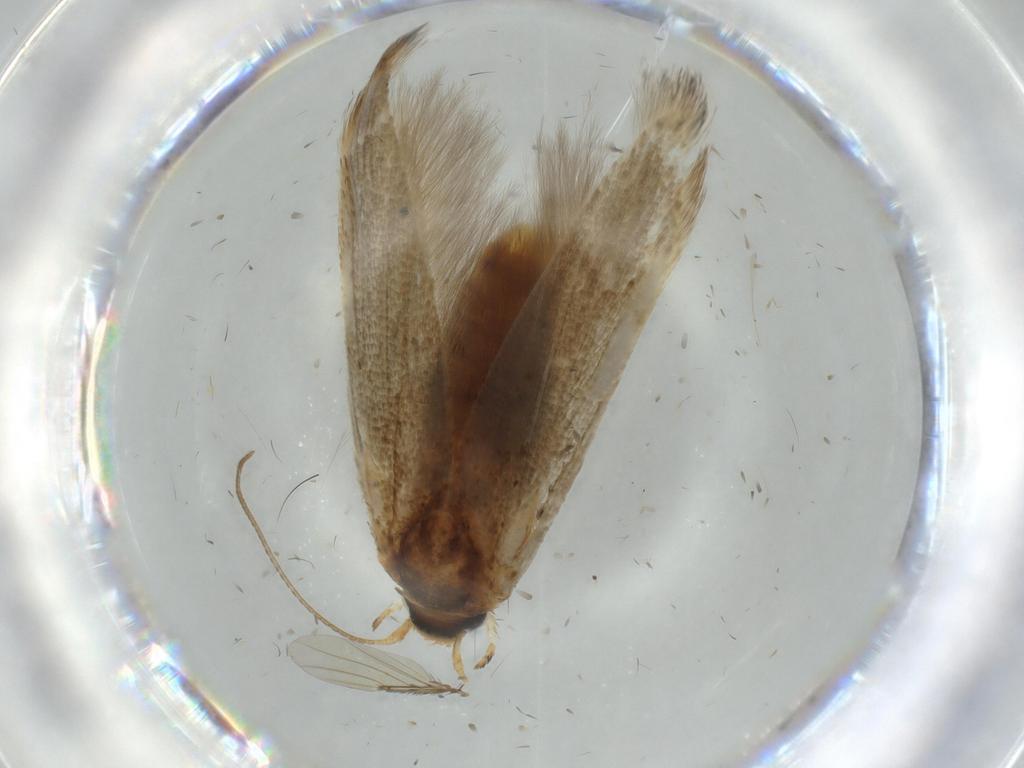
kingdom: Animalia
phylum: Arthropoda
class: Insecta
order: Lepidoptera
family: Coleophoridae
